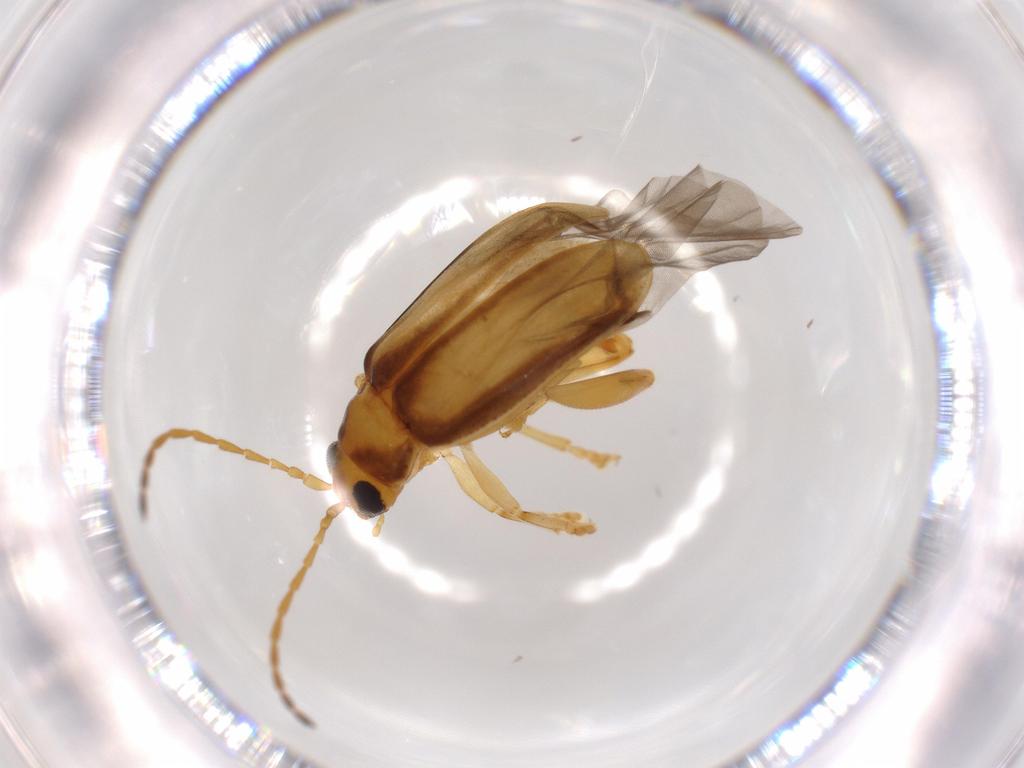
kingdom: Animalia
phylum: Arthropoda
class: Insecta
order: Coleoptera
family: Chrysomelidae
